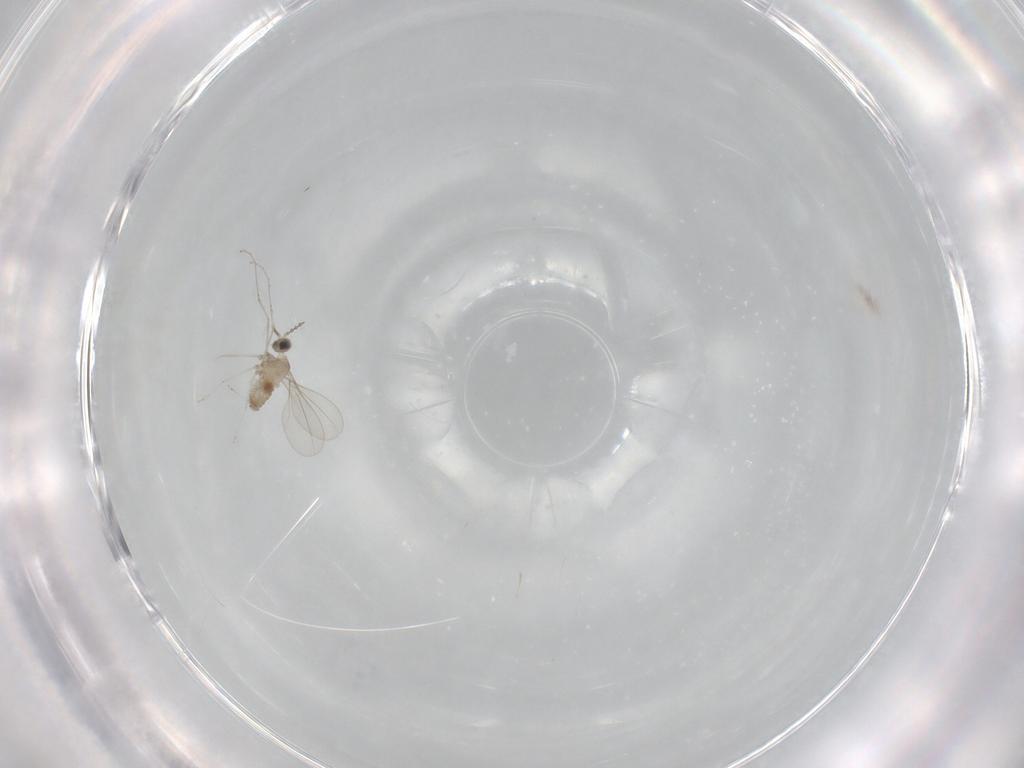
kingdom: Animalia
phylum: Arthropoda
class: Insecta
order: Diptera
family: Cecidomyiidae
